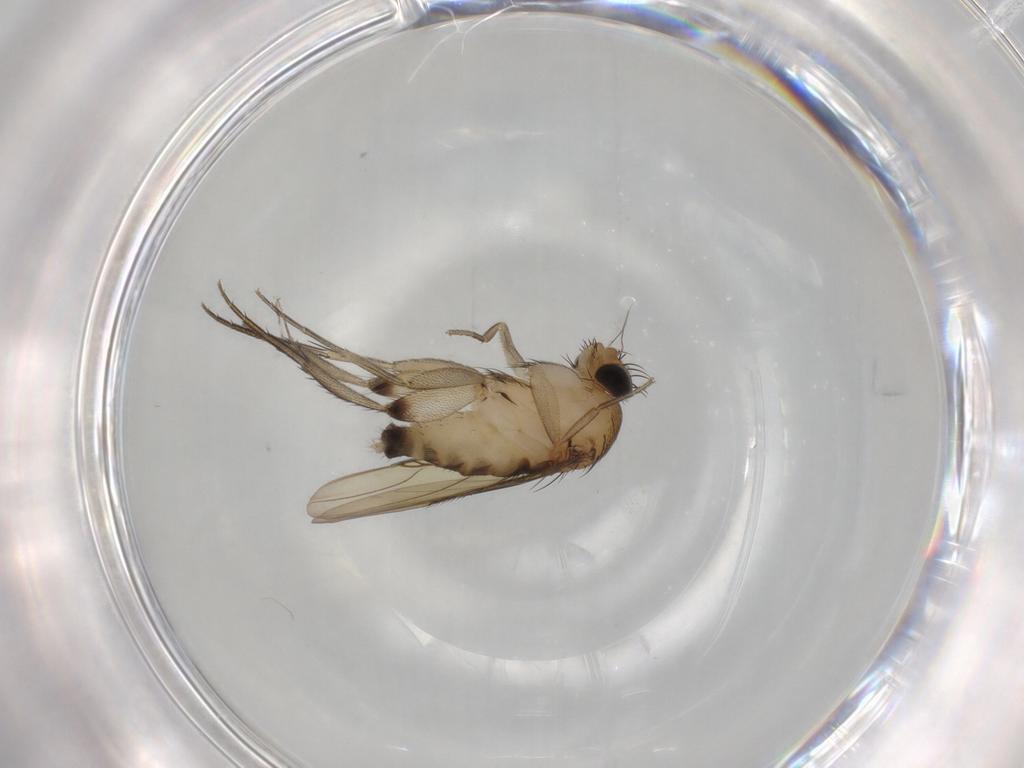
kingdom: Animalia
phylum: Arthropoda
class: Insecta
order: Diptera
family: Phoridae
